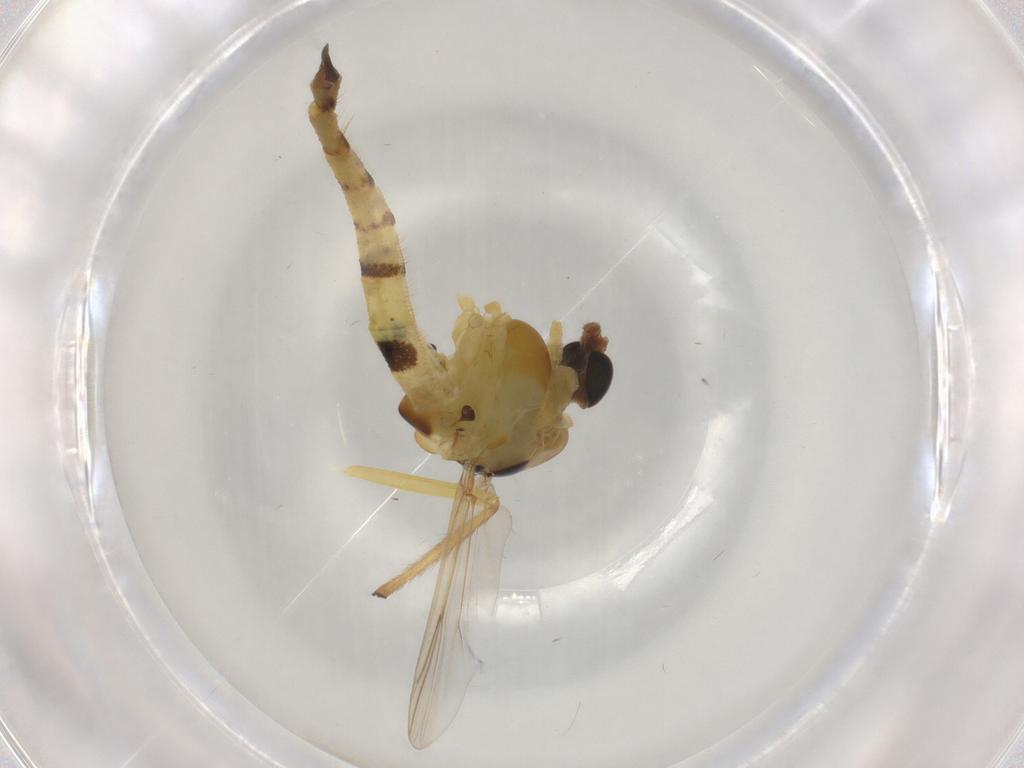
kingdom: Animalia
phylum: Arthropoda
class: Insecta
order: Diptera
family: Chironomidae
